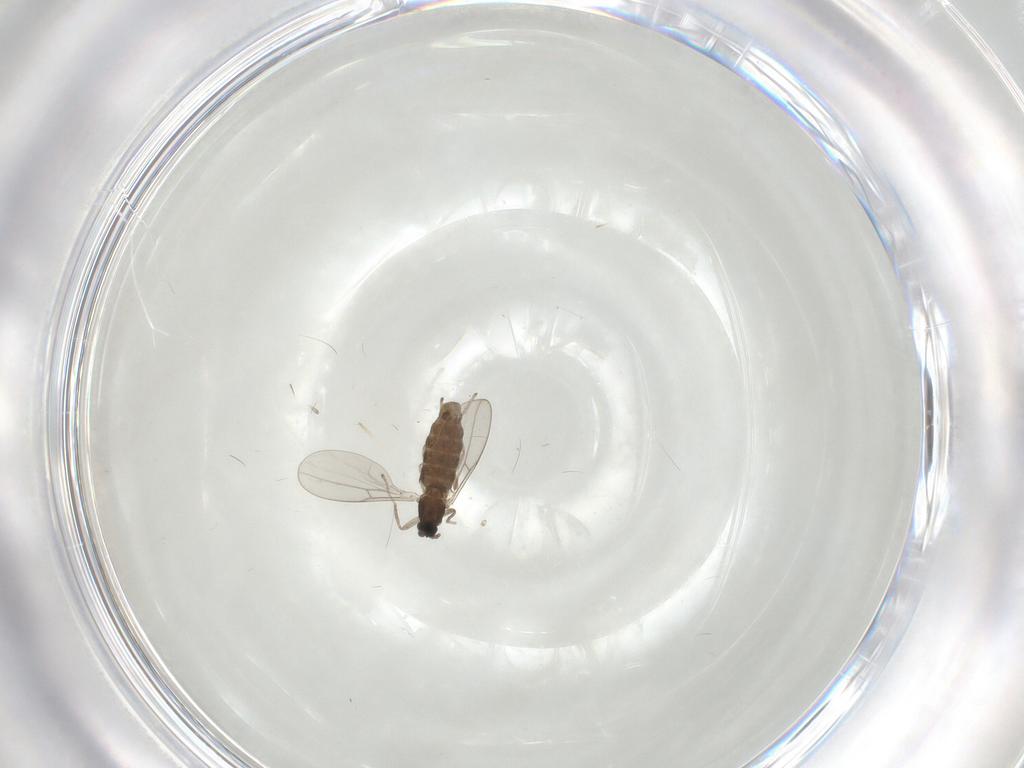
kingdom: Animalia
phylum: Arthropoda
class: Insecta
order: Diptera
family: Cecidomyiidae
